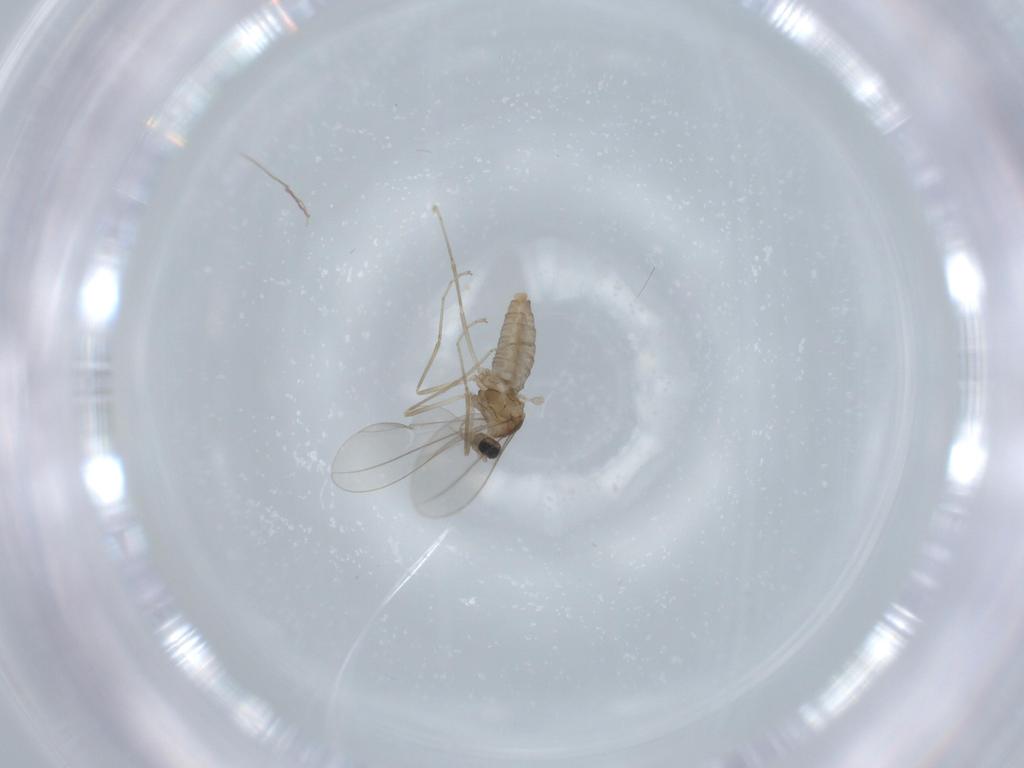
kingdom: Animalia
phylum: Arthropoda
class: Insecta
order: Diptera
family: Cecidomyiidae
